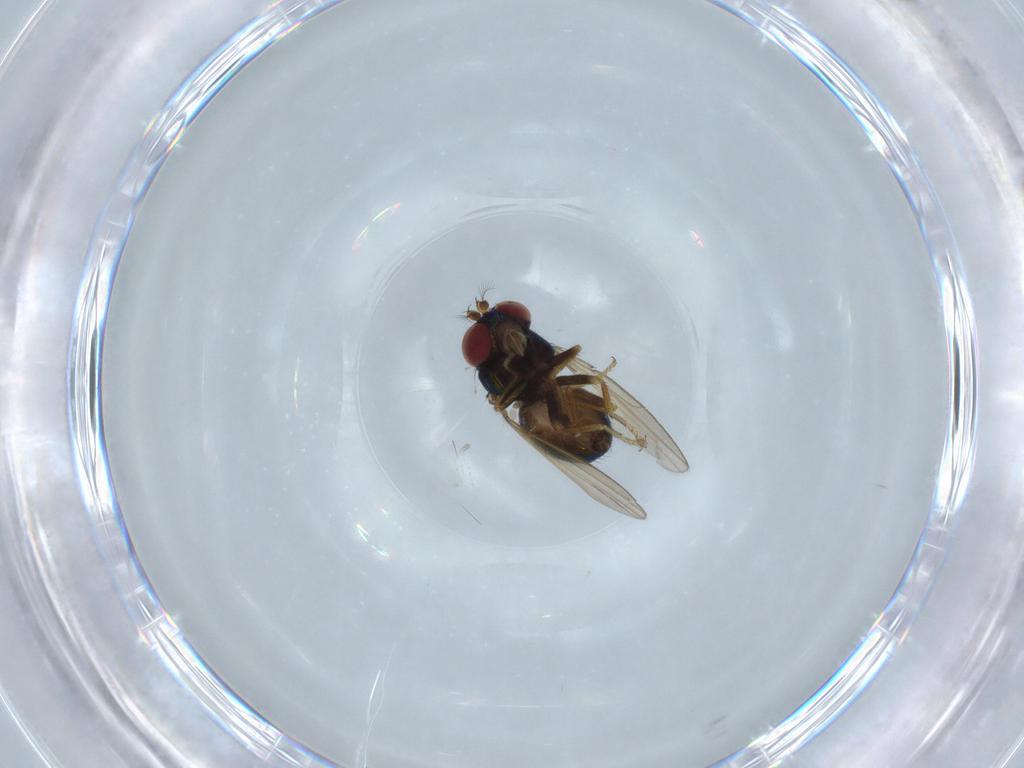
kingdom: Animalia
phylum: Arthropoda
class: Insecta
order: Diptera
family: Ephydridae
